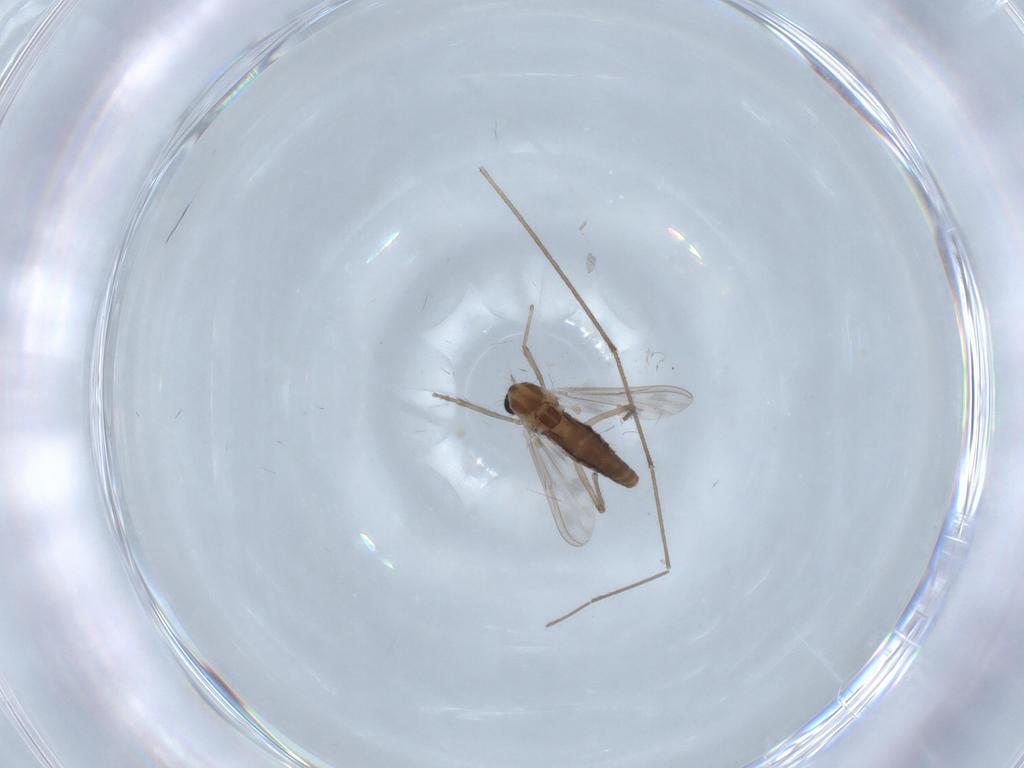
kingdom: Animalia
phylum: Arthropoda
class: Insecta
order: Diptera
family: Chironomidae
